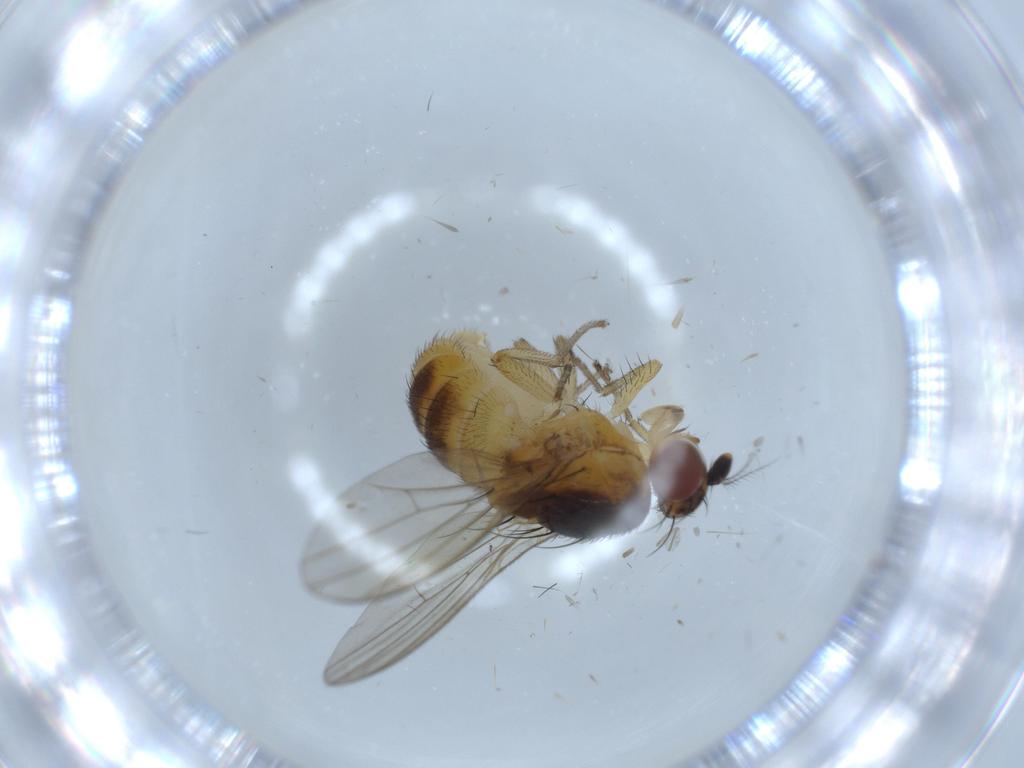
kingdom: Animalia
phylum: Arthropoda
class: Insecta
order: Diptera
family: Lauxaniidae
